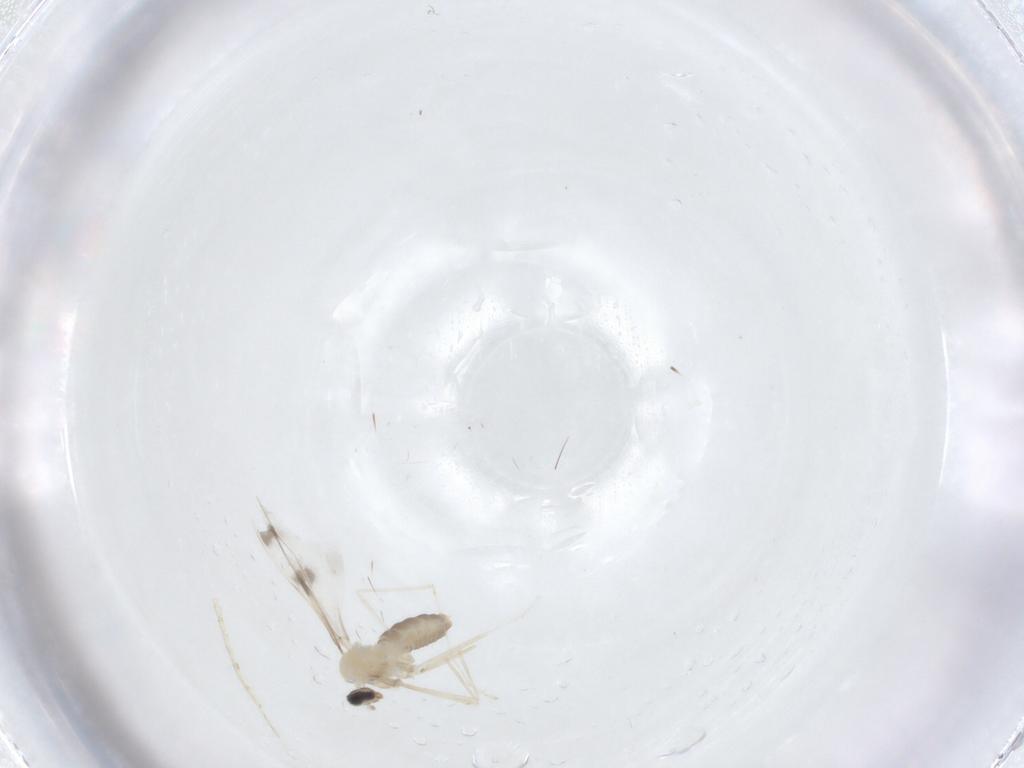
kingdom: Animalia
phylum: Arthropoda
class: Insecta
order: Diptera
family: Cecidomyiidae
